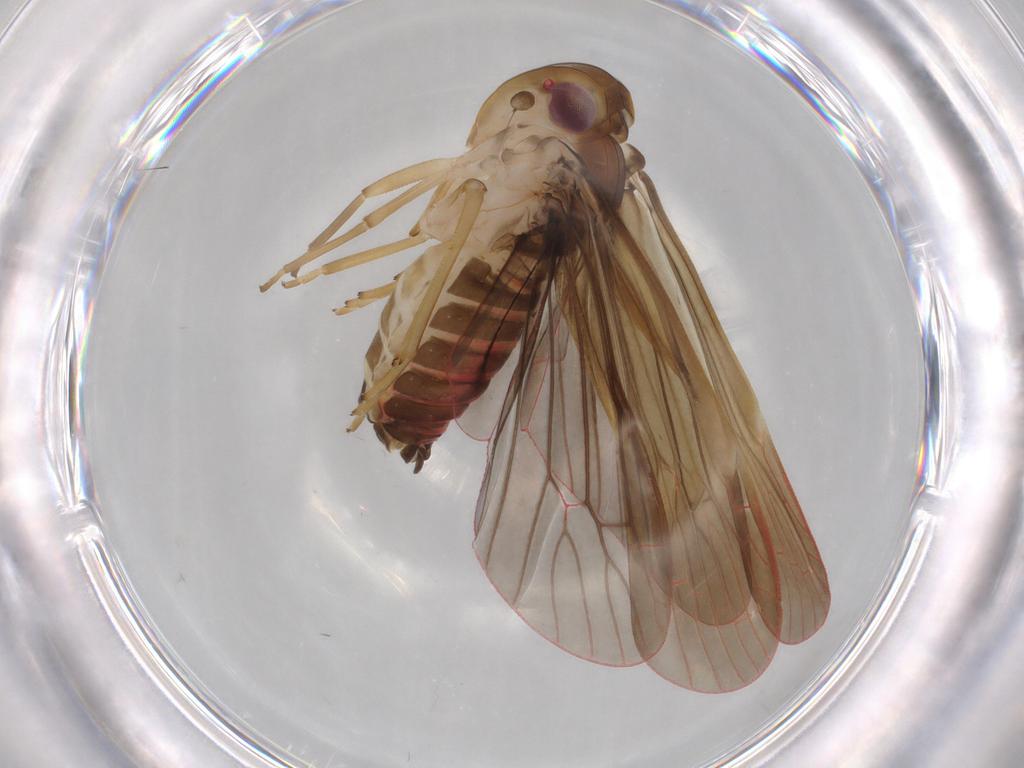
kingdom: Animalia
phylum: Arthropoda
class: Insecta
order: Hemiptera
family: Achilidae
